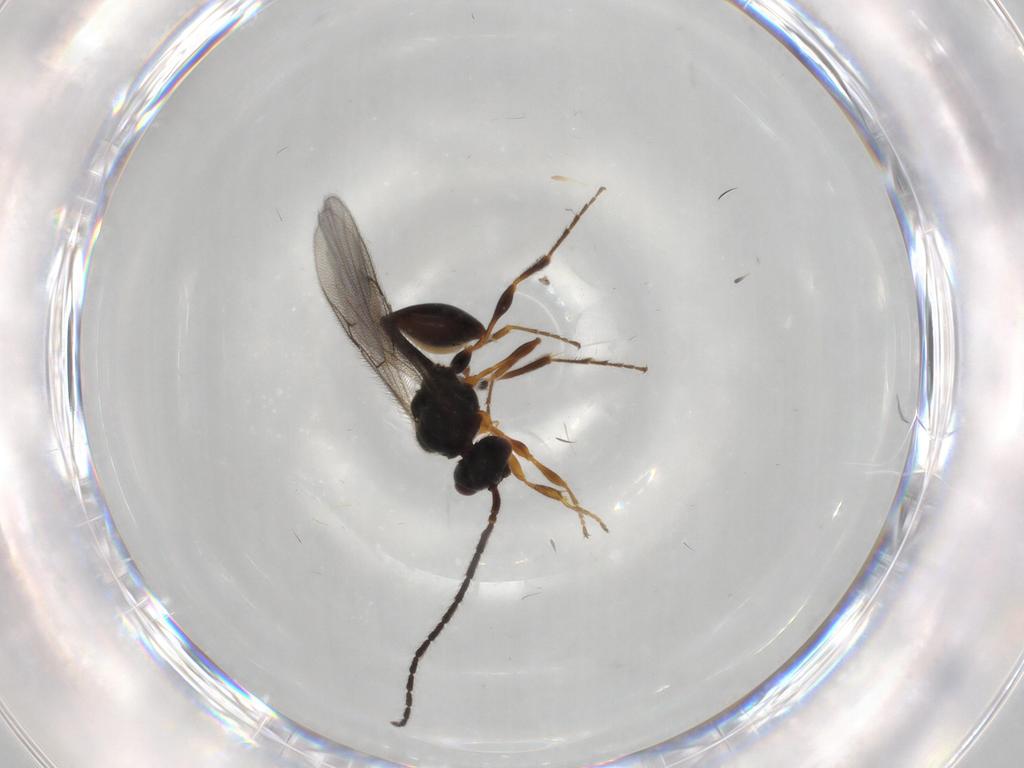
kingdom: Animalia
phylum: Arthropoda
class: Insecta
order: Hymenoptera
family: Diapriidae
